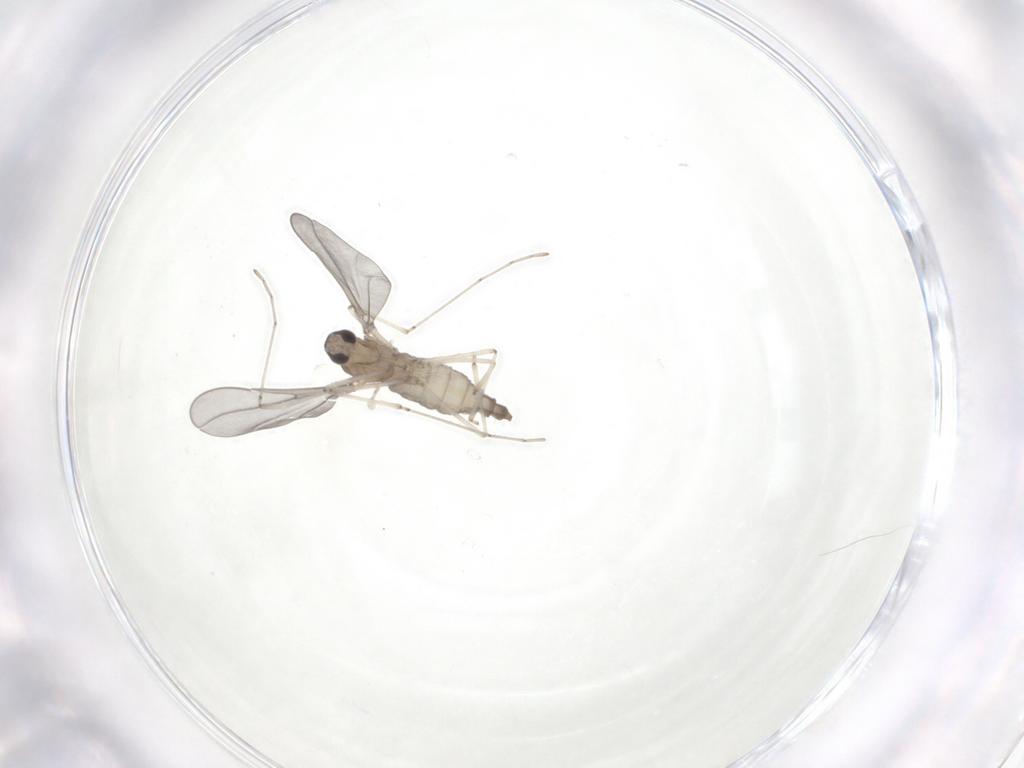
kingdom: Animalia
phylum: Arthropoda
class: Insecta
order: Diptera
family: Cecidomyiidae
